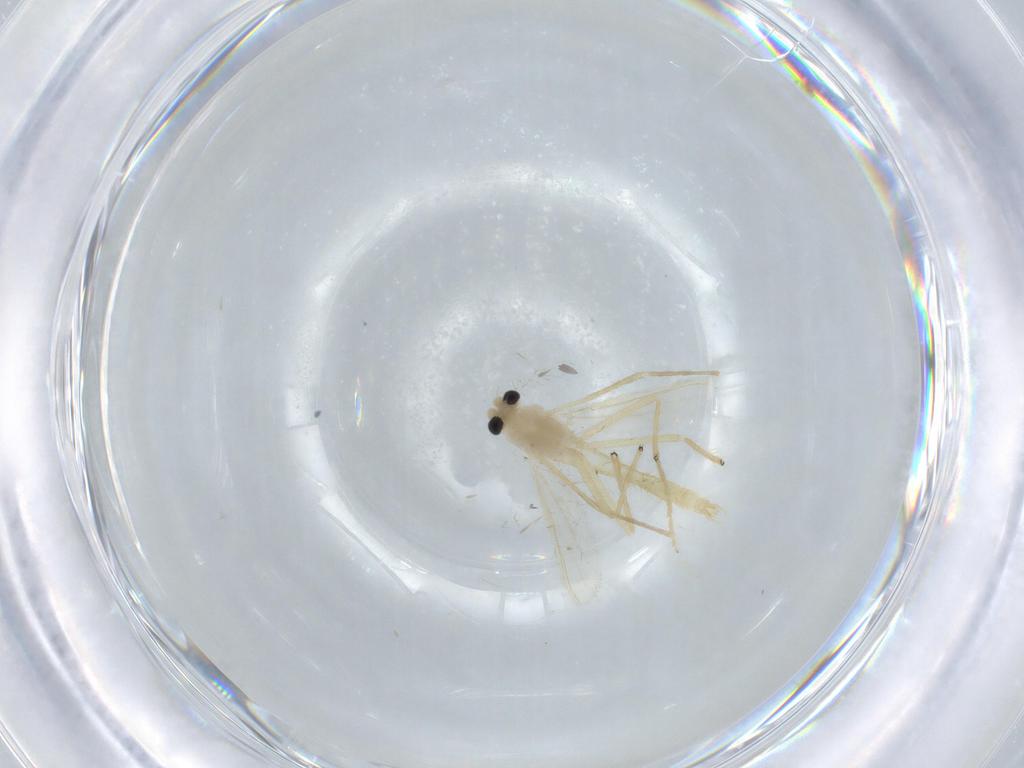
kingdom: Animalia
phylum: Arthropoda
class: Insecta
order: Diptera
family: Chironomidae
